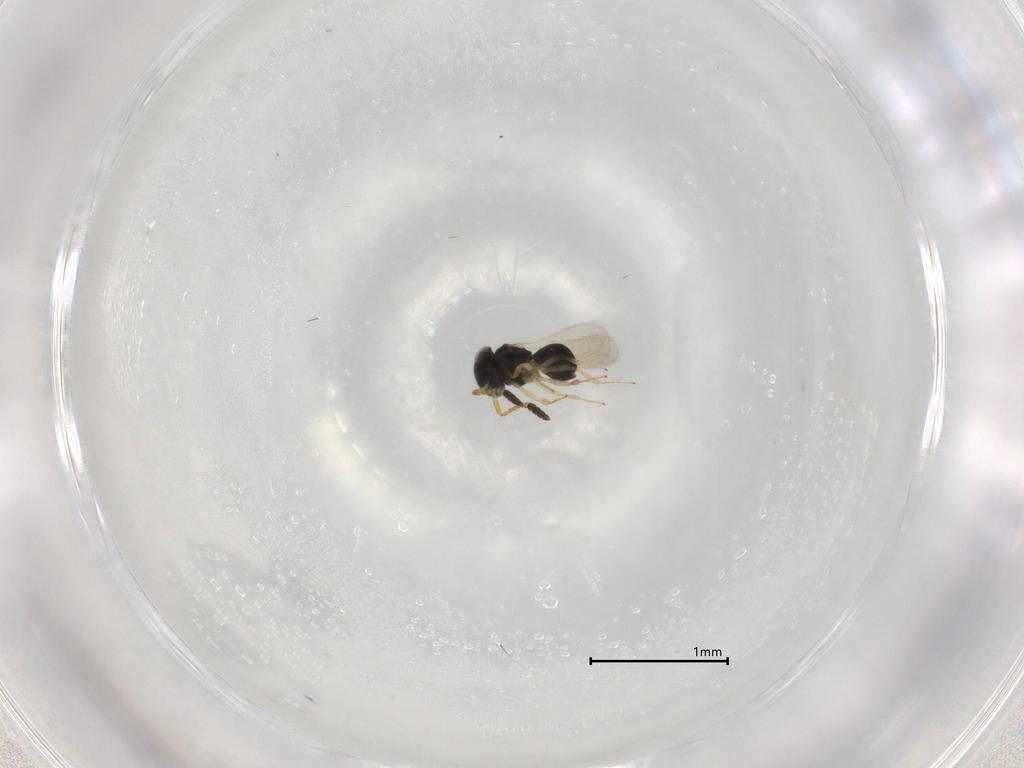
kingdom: Animalia
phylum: Arthropoda
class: Insecta
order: Hymenoptera
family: Scelionidae
